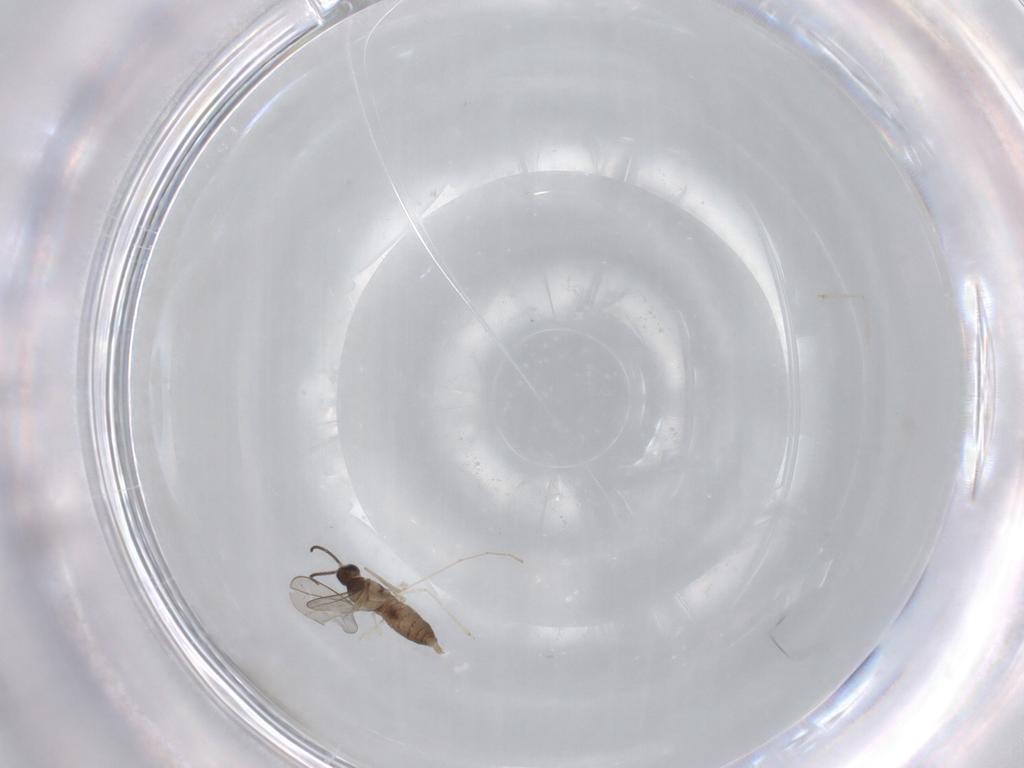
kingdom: Animalia
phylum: Arthropoda
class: Insecta
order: Diptera
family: Cecidomyiidae
